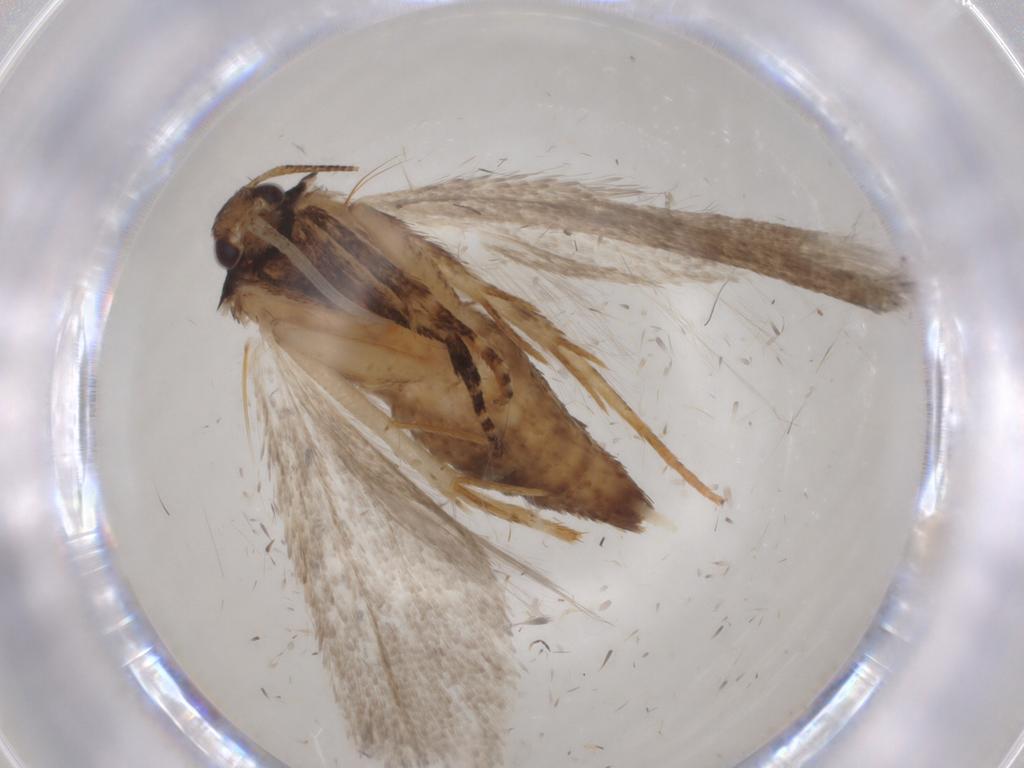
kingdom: Animalia
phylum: Arthropoda
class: Insecta
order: Lepidoptera
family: Gelechiidae
